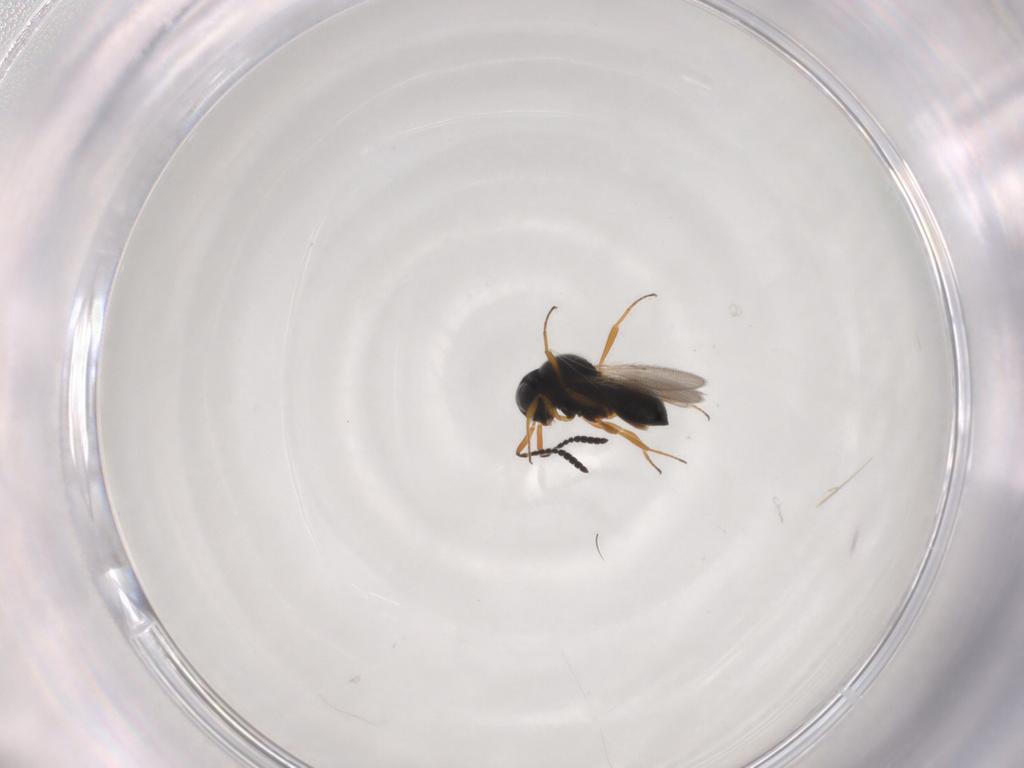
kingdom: Animalia
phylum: Arthropoda
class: Insecta
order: Hymenoptera
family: Scelionidae
